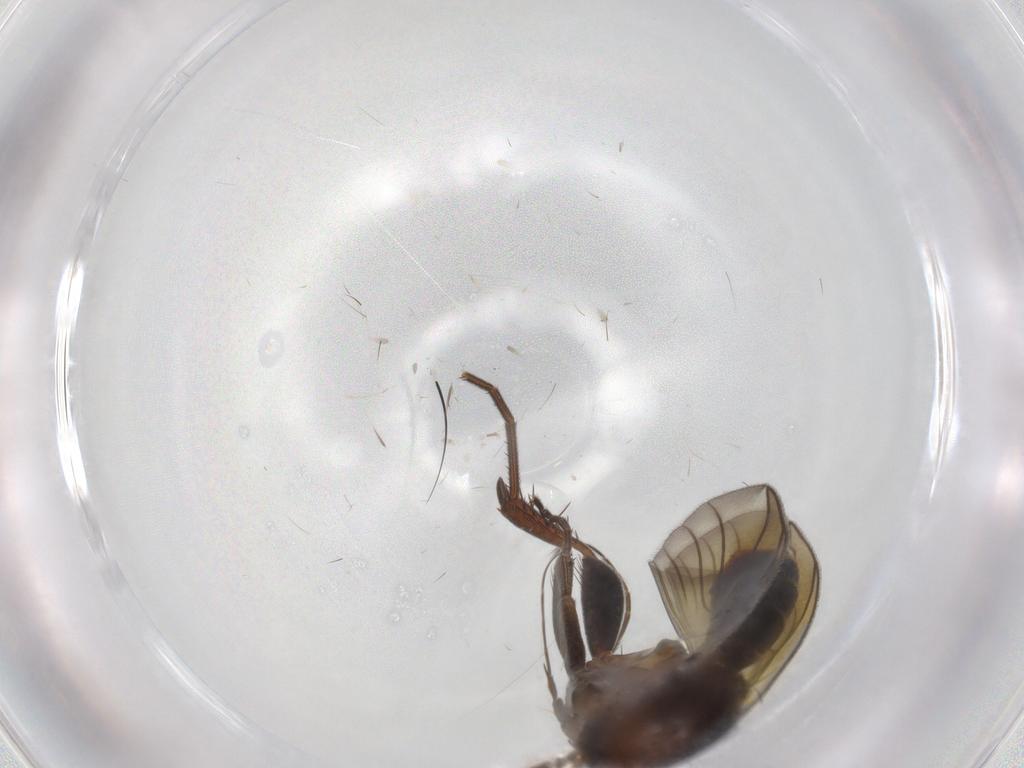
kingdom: Animalia
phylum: Arthropoda
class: Insecta
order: Diptera
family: Mycetophilidae
